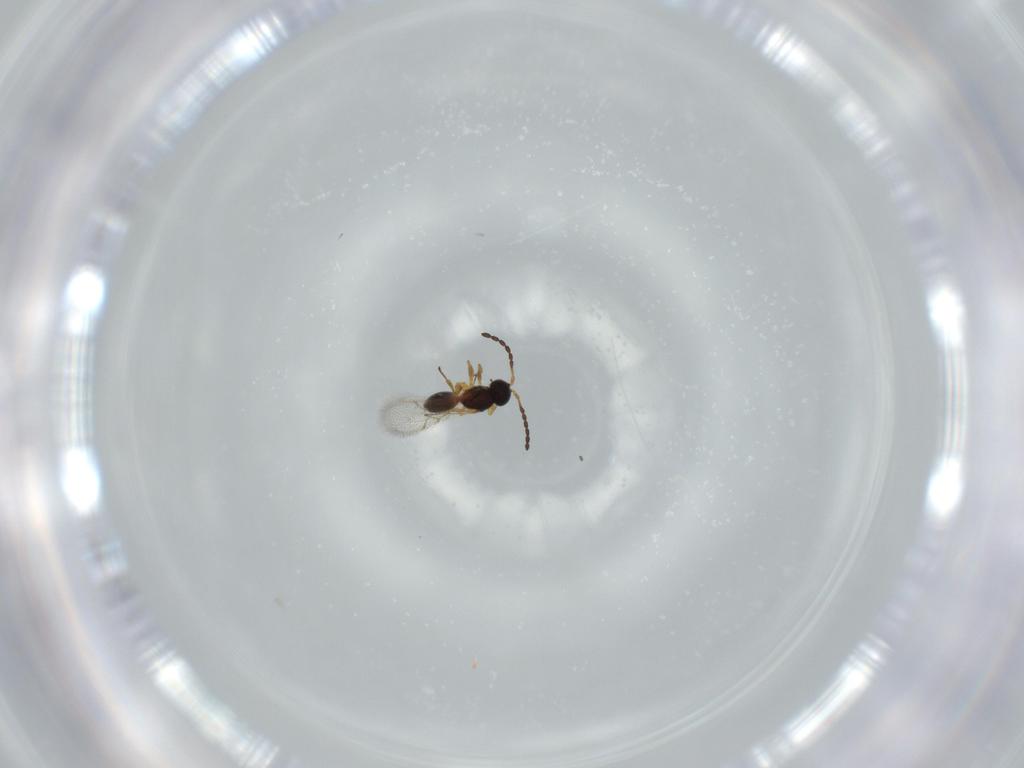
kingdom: Animalia
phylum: Arthropoda
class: Insecta
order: Hymenoptera
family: Figitidae
